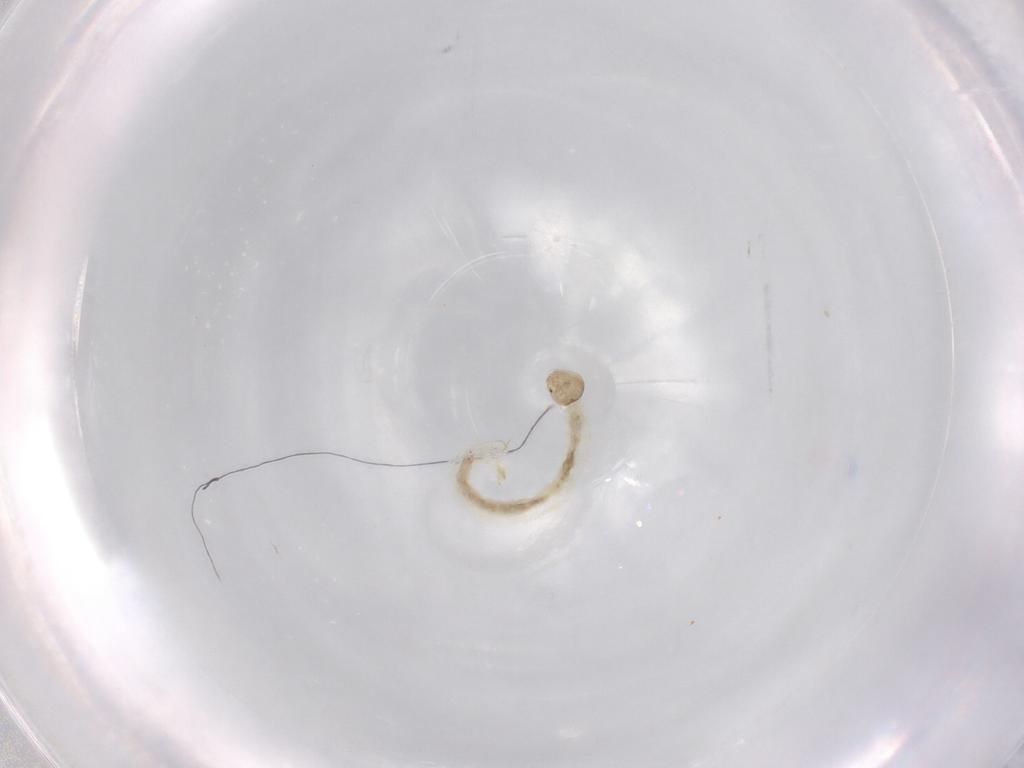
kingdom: Animalia
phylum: Arthropoda
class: Insecta
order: Diptera
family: Chironomidae
